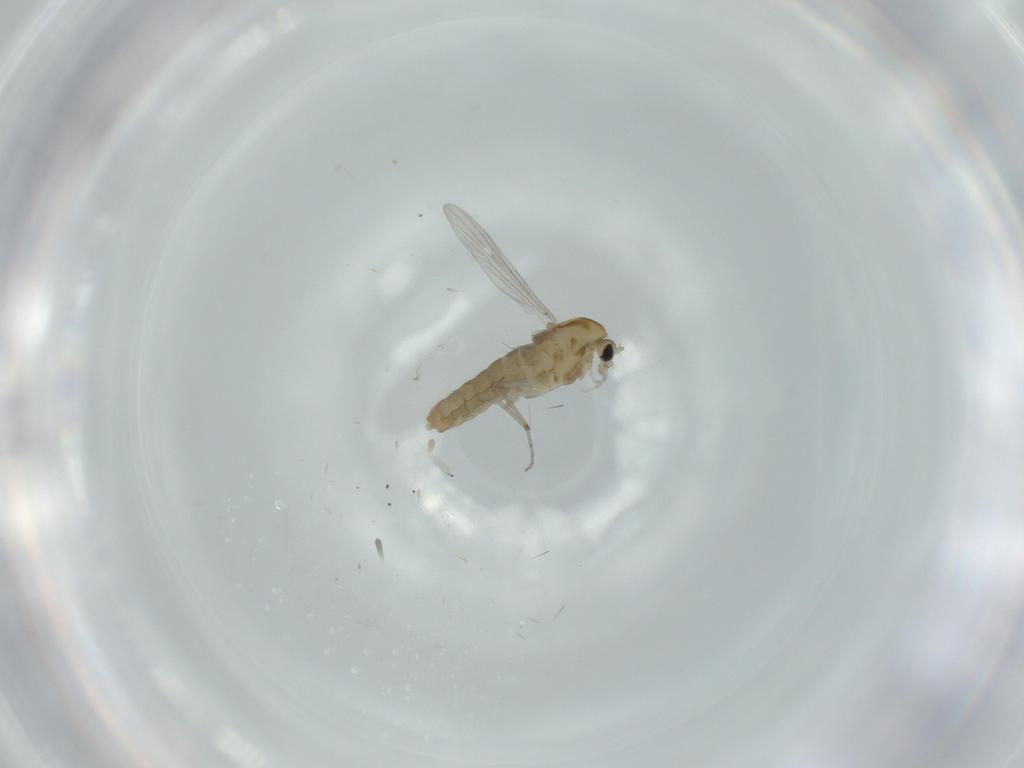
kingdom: Animalia
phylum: Arthropoda
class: Insecta
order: Diptera
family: Chironomidae
